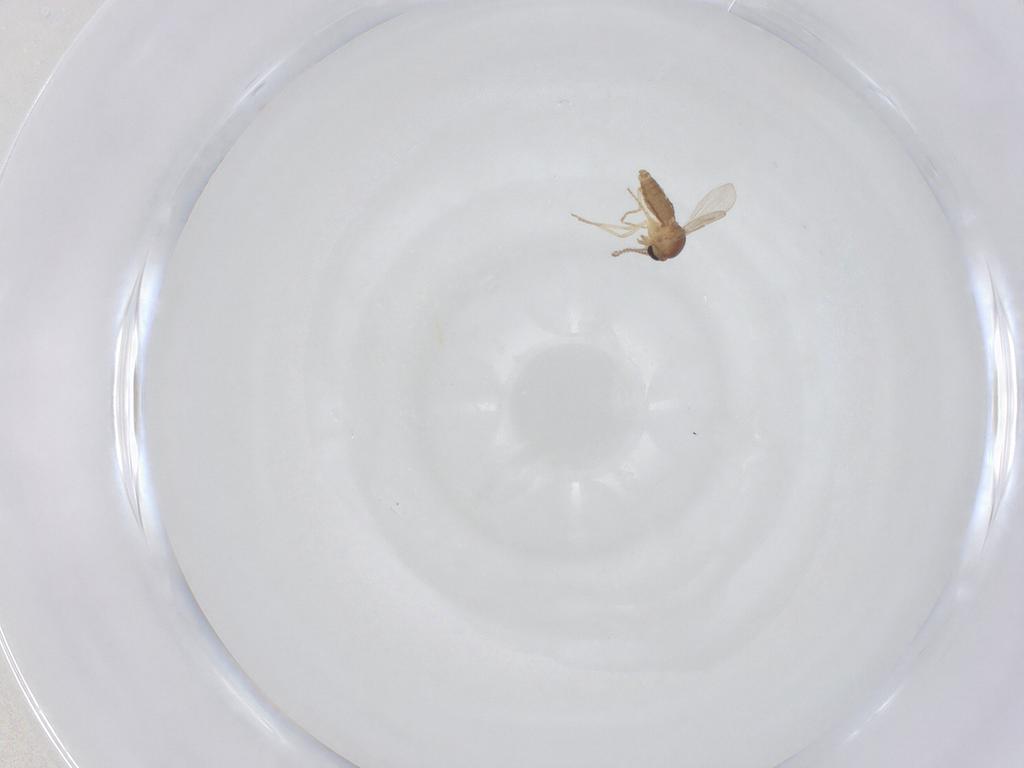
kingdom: Animalia
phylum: Arthropoda
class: Insecta
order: Diptera
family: Ceratopogonidae
